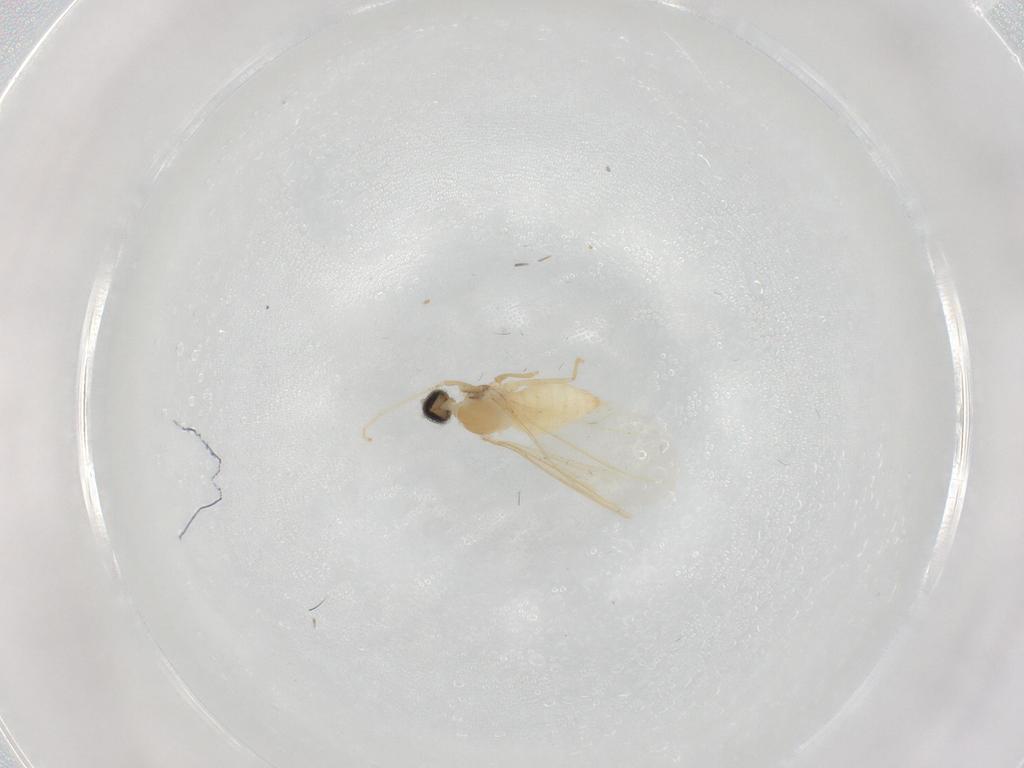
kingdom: Animalia
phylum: Arthropoda
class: Insecta
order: Diptera
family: Cecidomyiidae
